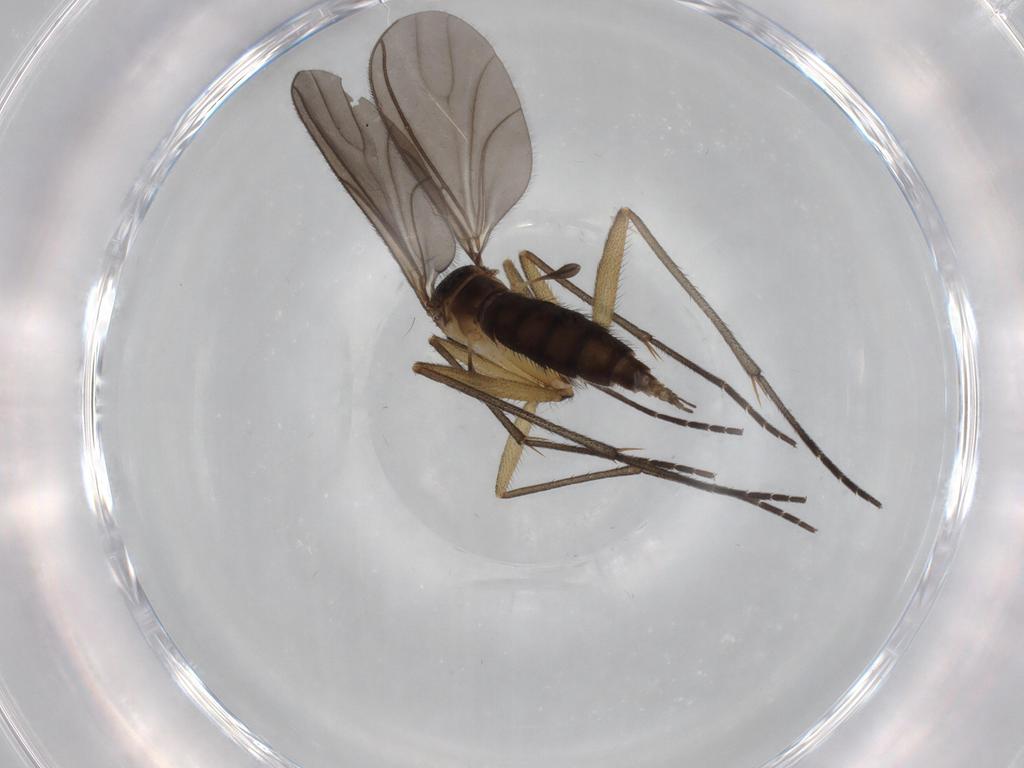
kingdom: Animalia
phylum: Arthropoda
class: Insecta
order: Diptera
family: Sciaridae
